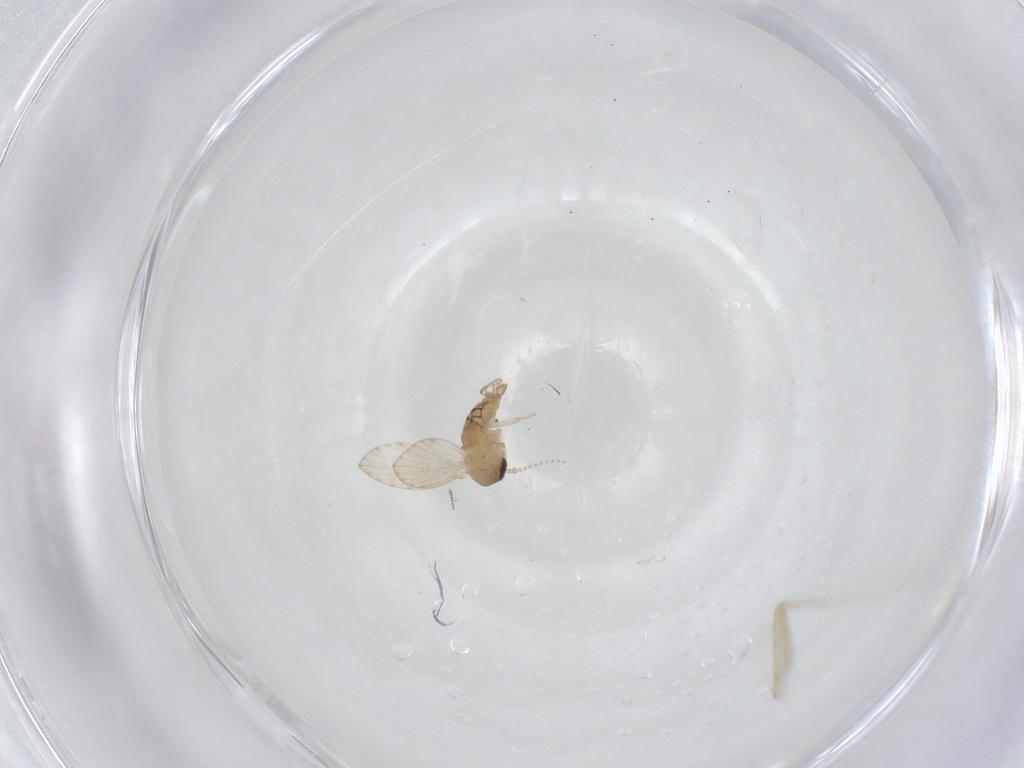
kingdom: Animalia
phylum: Arthropoda
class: Insecta
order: Diptera
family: Psychodidae
